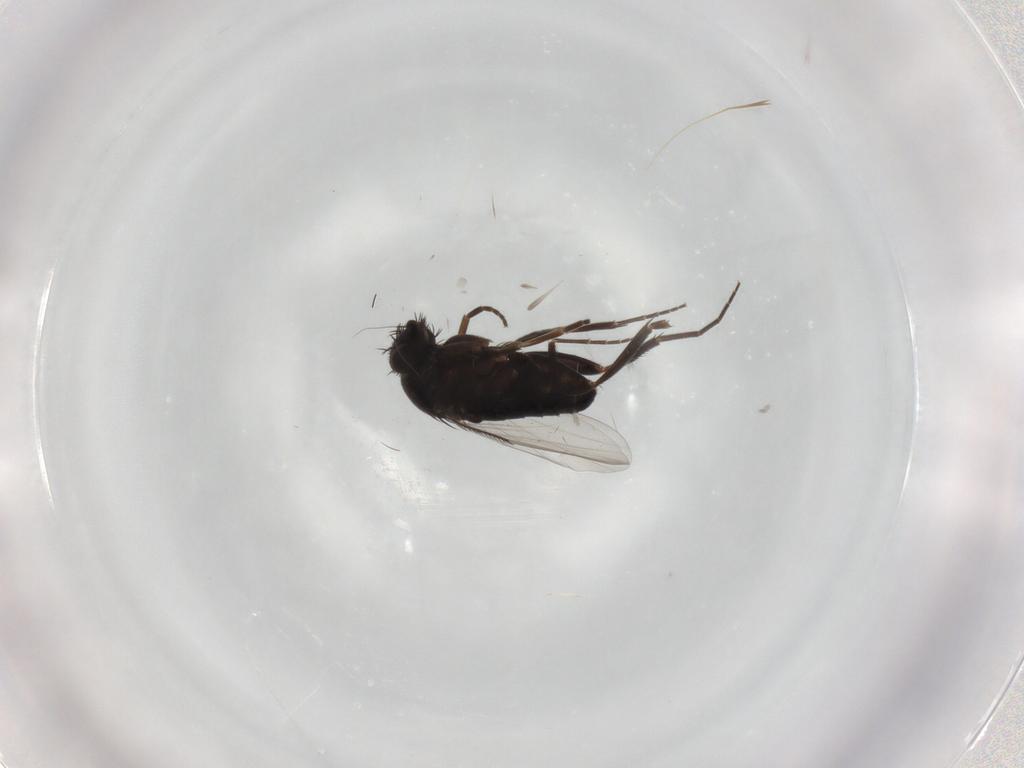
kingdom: Animalia
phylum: Arthropoda
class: Insecta
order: Diptera
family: Phoridae
